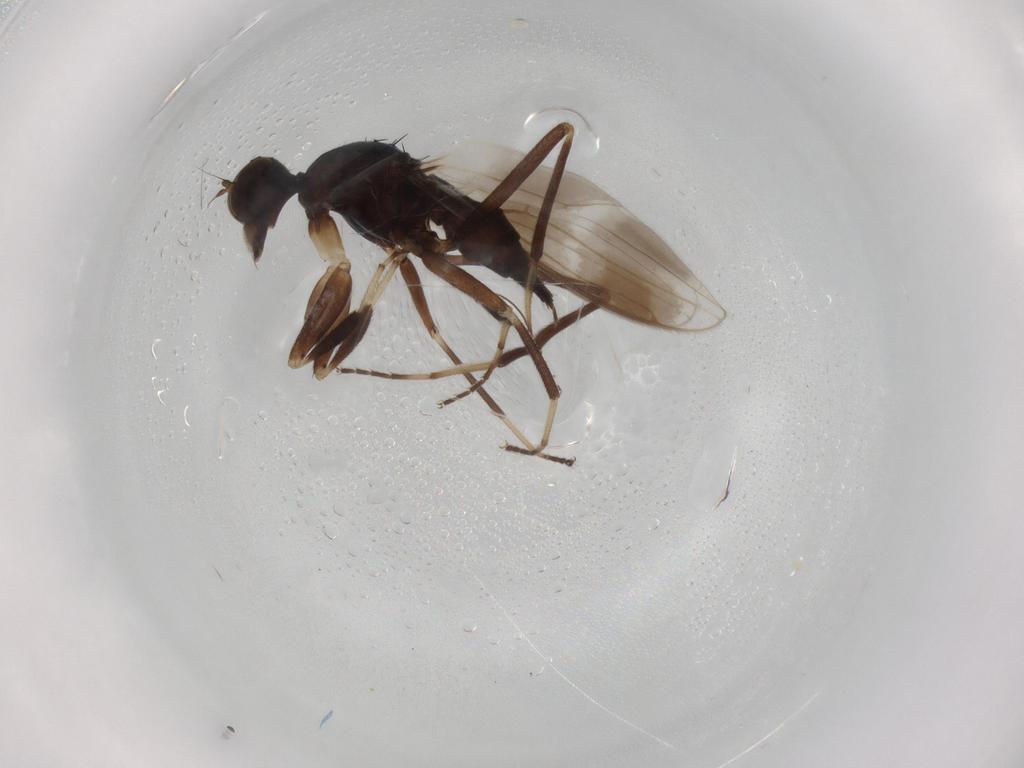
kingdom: Animalia
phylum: Arthropoda
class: Insecta
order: Diptera
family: Hybotidae
